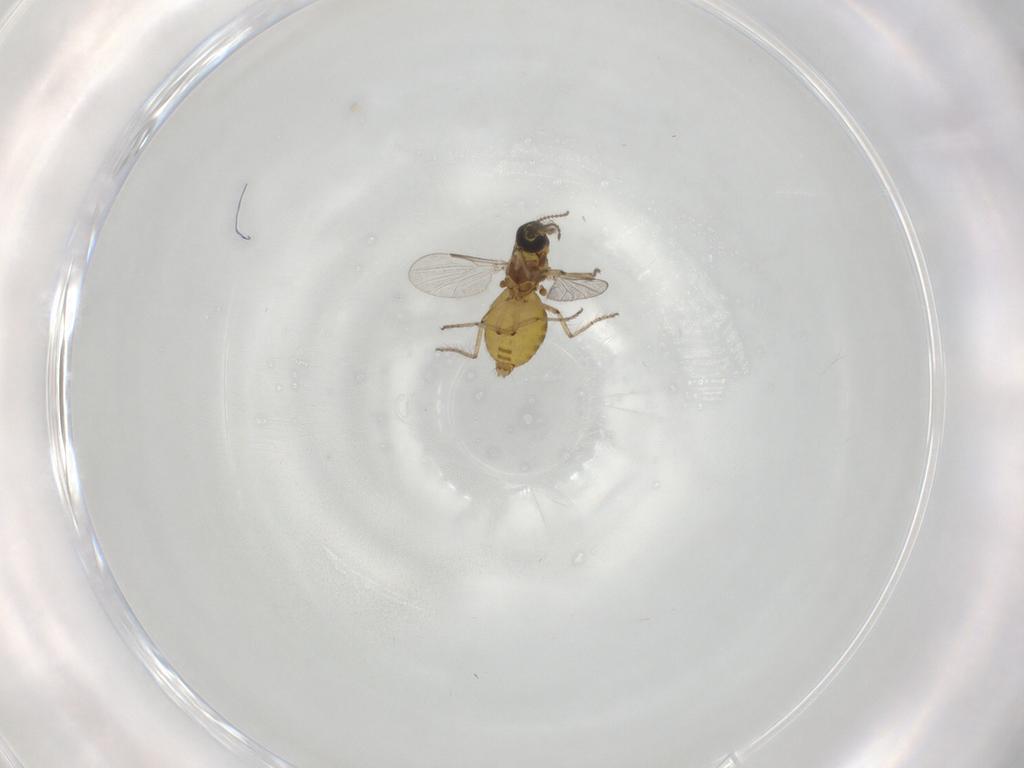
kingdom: Animalia
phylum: Arthropoda
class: Insecta
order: Diptera
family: Ceratopogonidae
